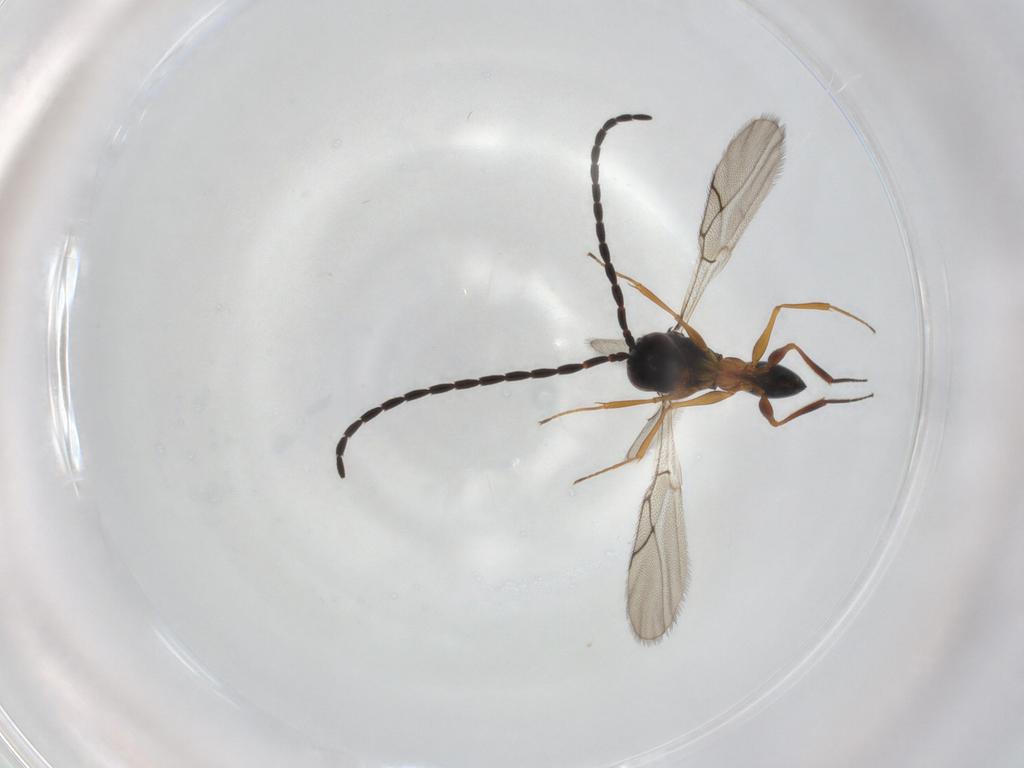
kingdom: Animalia
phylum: Arthropoda
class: Insecta
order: Hymenoptera
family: Figitidae
